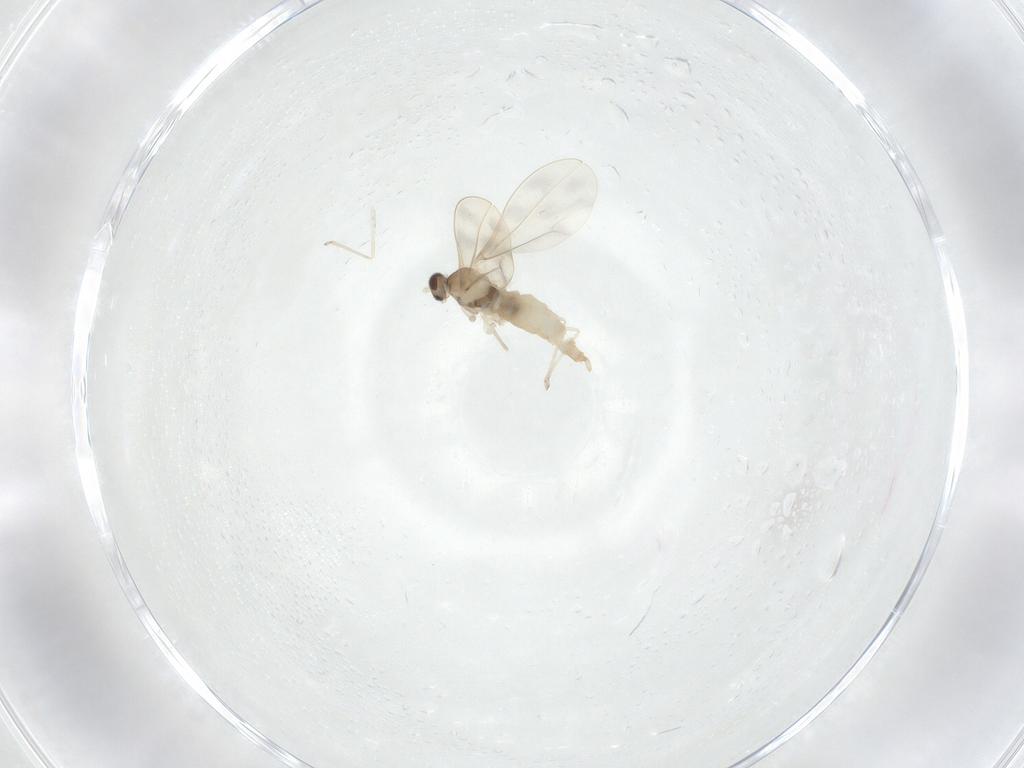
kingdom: Animalia
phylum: Arthropoda
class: Insecta
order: Diptera
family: Cecidomyiidae
